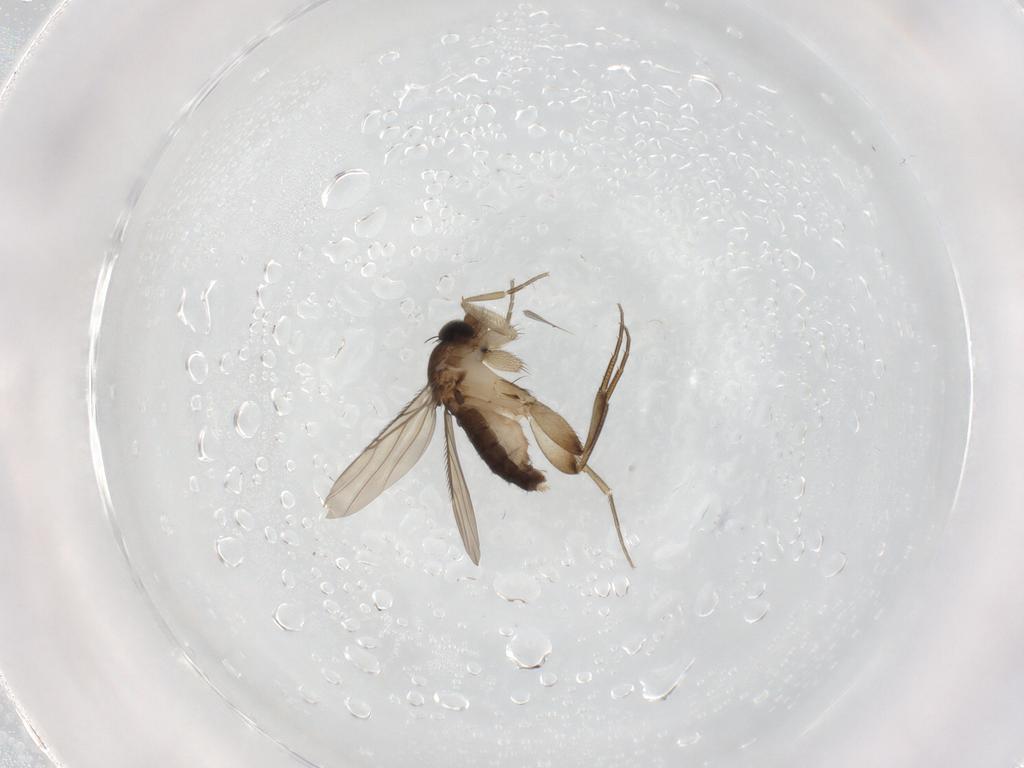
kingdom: Animalia
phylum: Arthropoda
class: Insecta
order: Diptera
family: Phoridae
